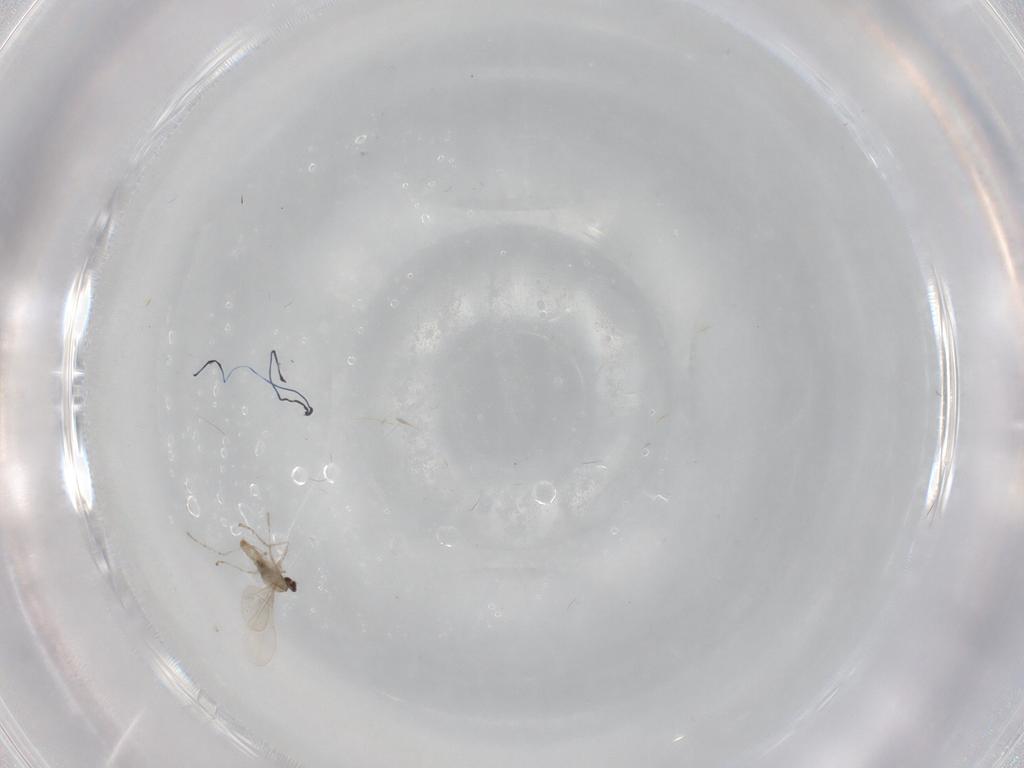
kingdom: Animalia
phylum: Arthropoda
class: Insecta
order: Diptera
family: Cecidomyiidae
